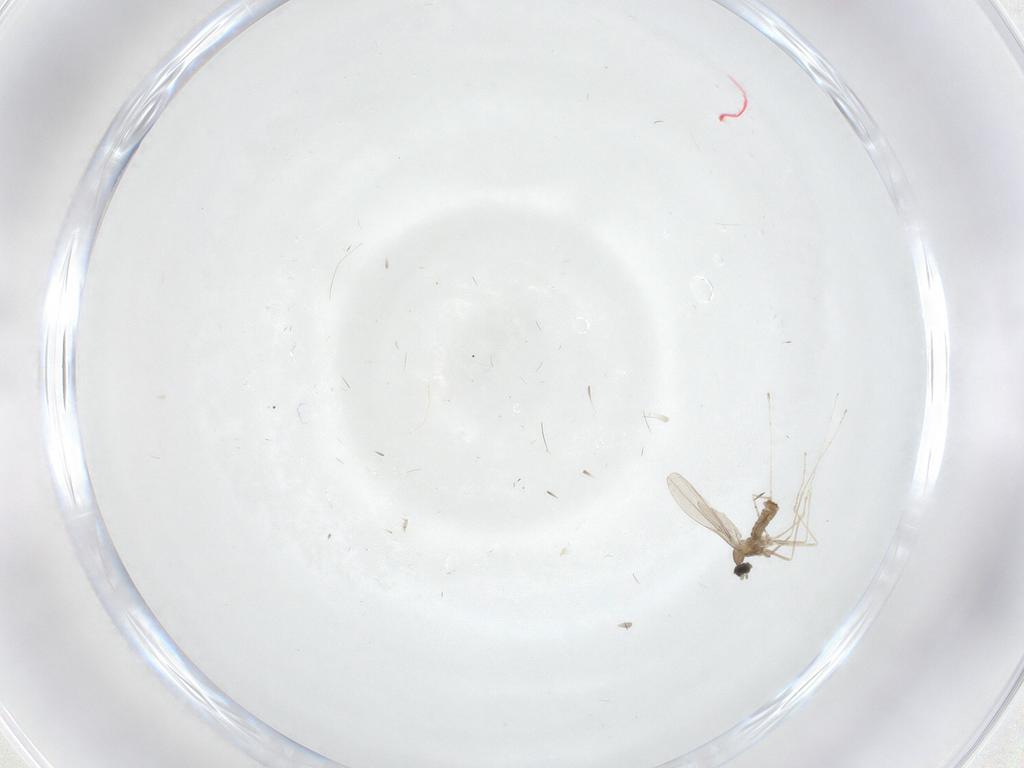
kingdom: Animalia
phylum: Arthropoda
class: Insecta
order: Diptera
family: Cecidomyiidae
